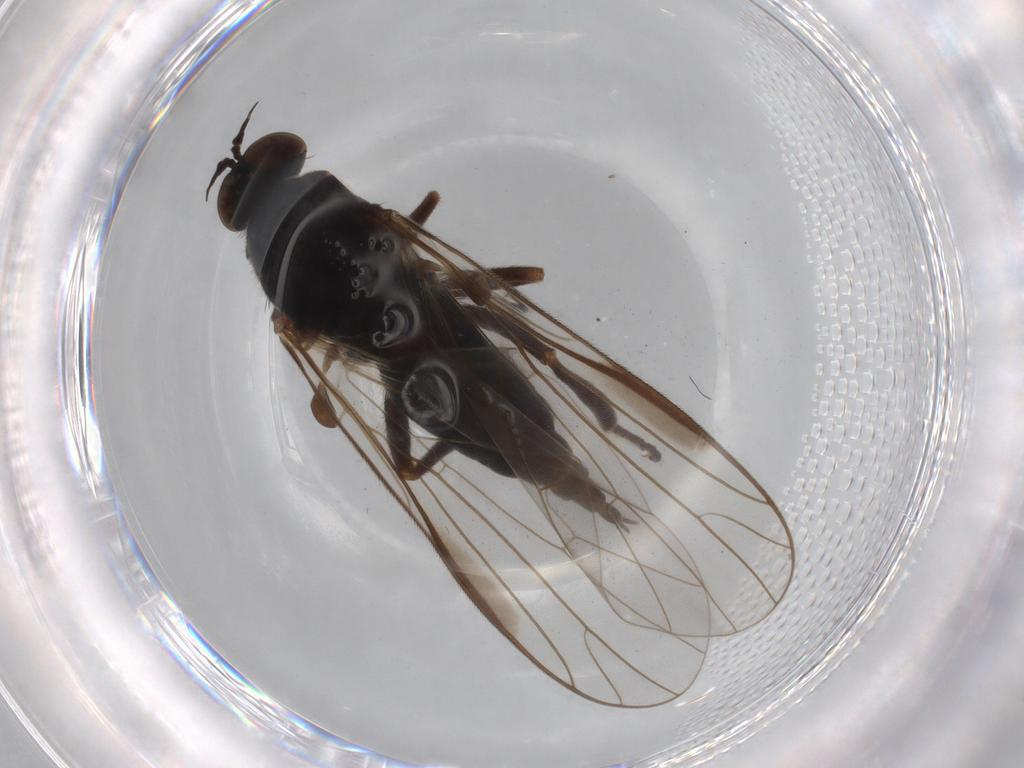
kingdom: Animalia
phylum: Arthropoda
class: Insecta
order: Diptera
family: Empididae
